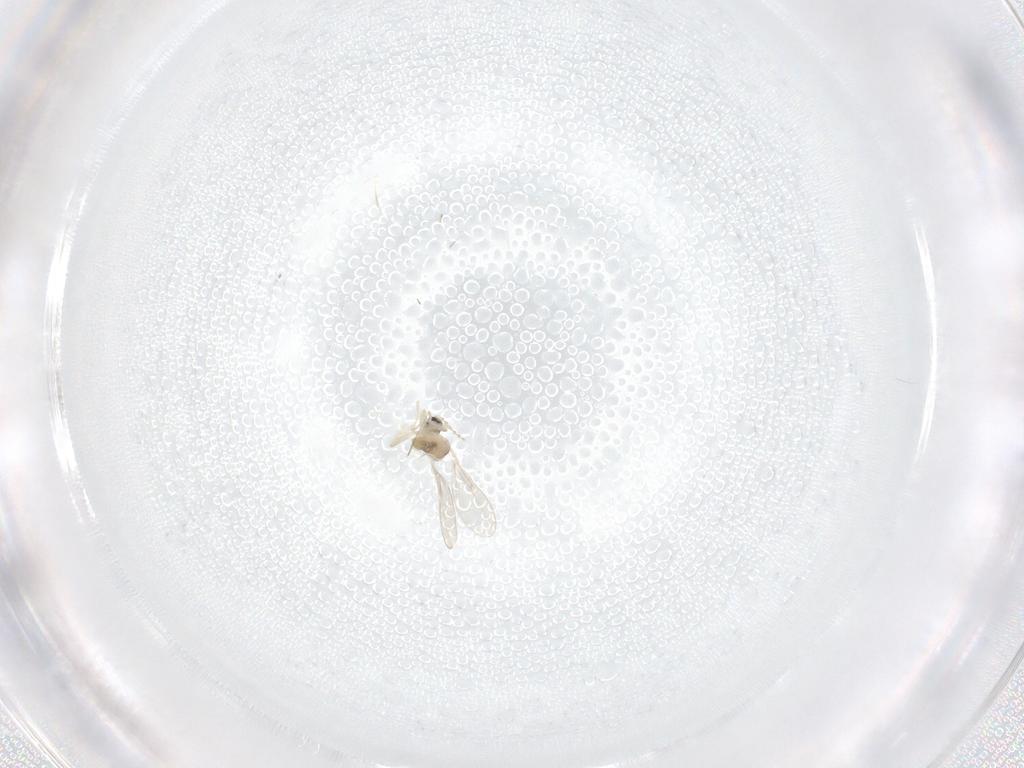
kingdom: Animalia
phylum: Arthropoda
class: Insecta
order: Diptera
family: Cecidomyiidae
